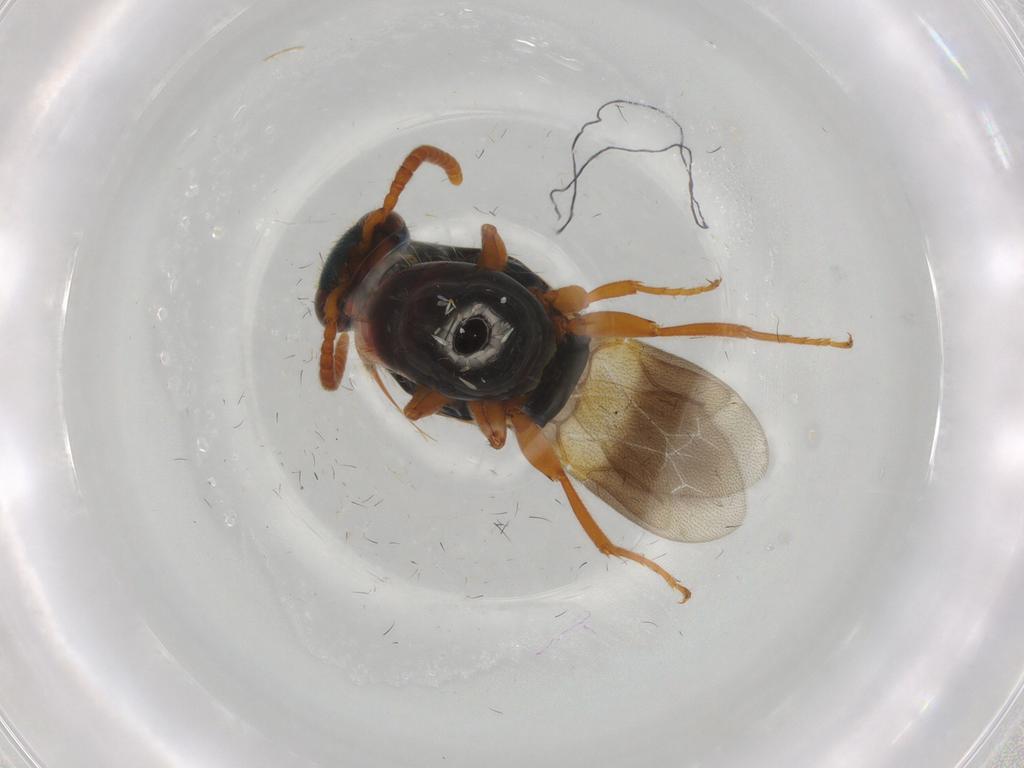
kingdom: Animalia
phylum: Arthropoda
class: Insecta
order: Hymenoptera
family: Bethylidae
